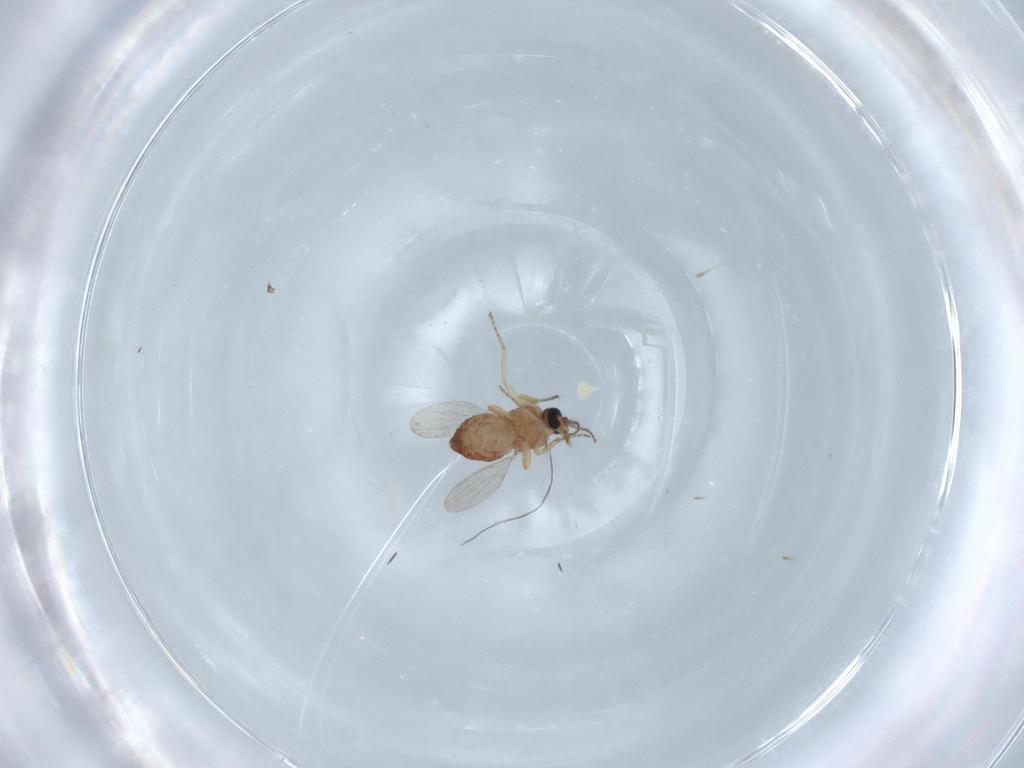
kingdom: Animalia
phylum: Arthropoda
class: Insecta
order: Diptera
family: Ceratopogonidae
